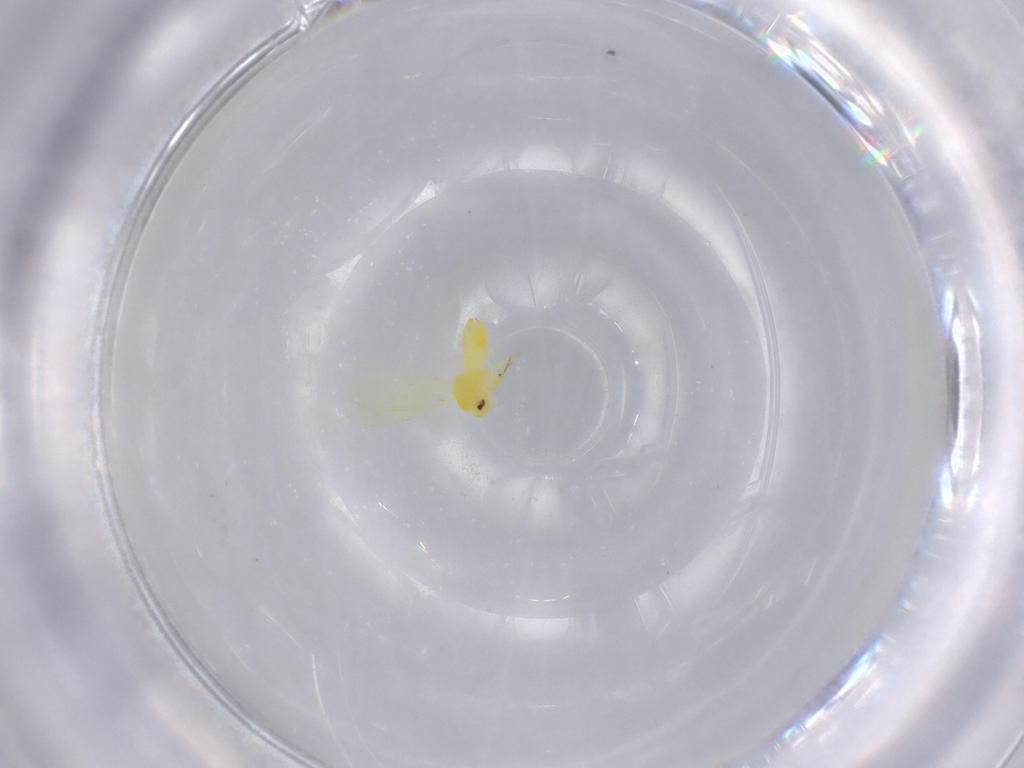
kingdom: Animalia
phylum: Arthropoda
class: Insecta
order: Hemiptera
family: Aleyrodidae
